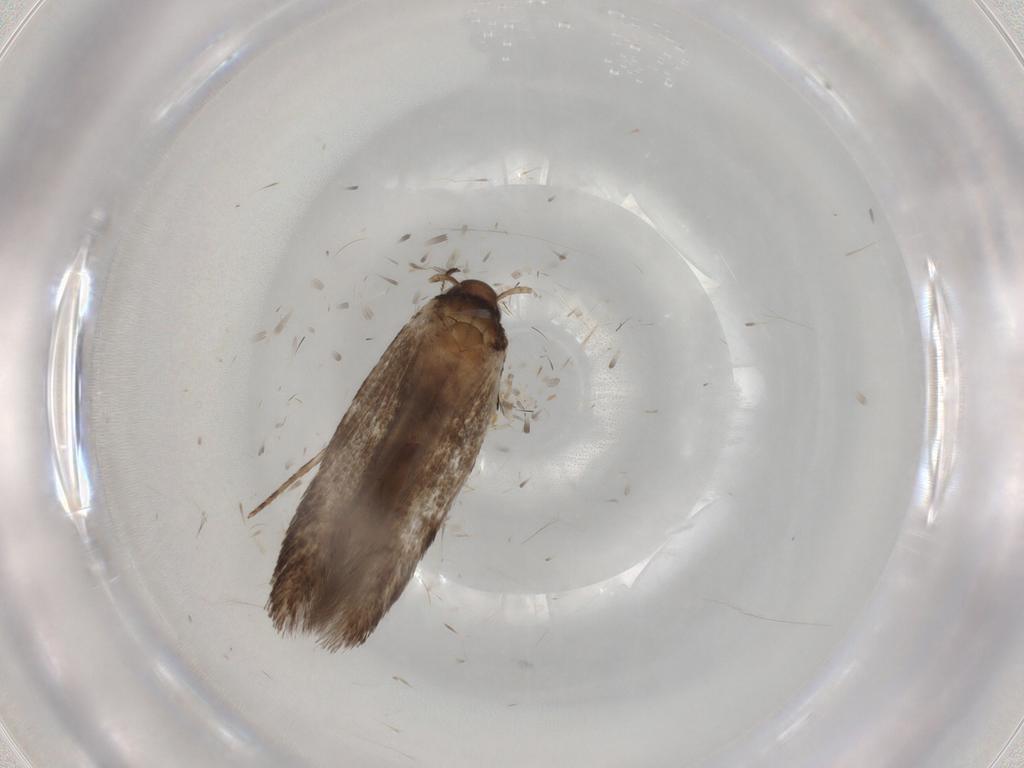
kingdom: Animalia
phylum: Arthropoda
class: Insecta
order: Lepidoptera
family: Cosmopterigidae
